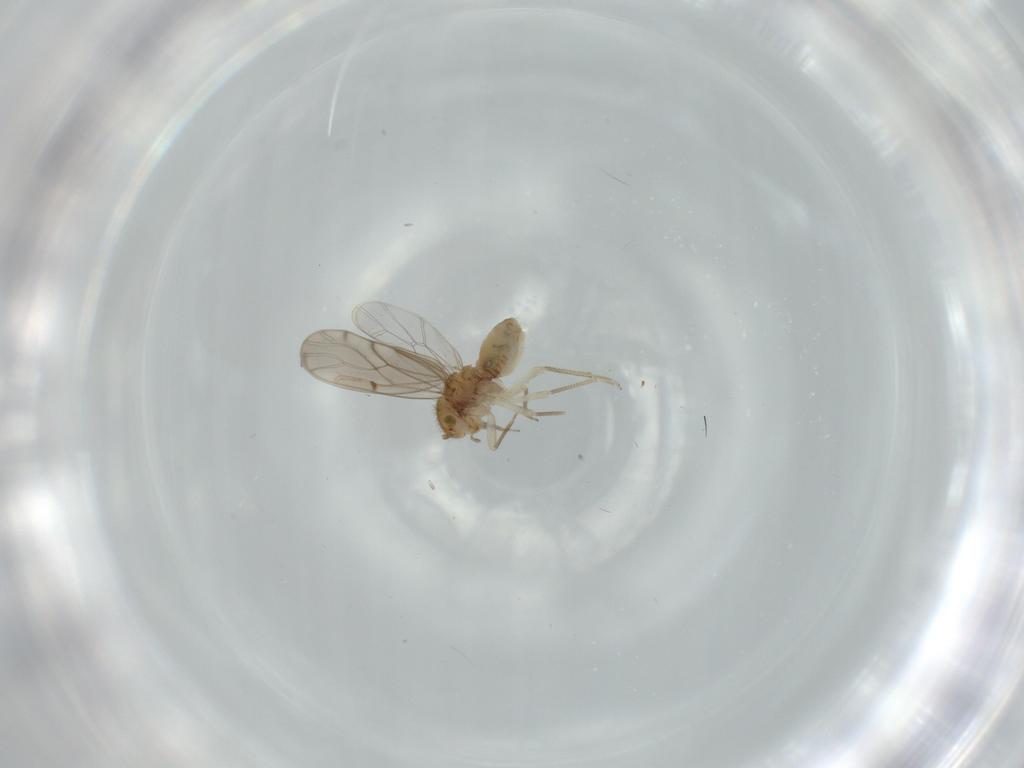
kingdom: Animalia
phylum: Arthropoda
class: Insecta
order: Psocodea
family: Ectopsocidae
